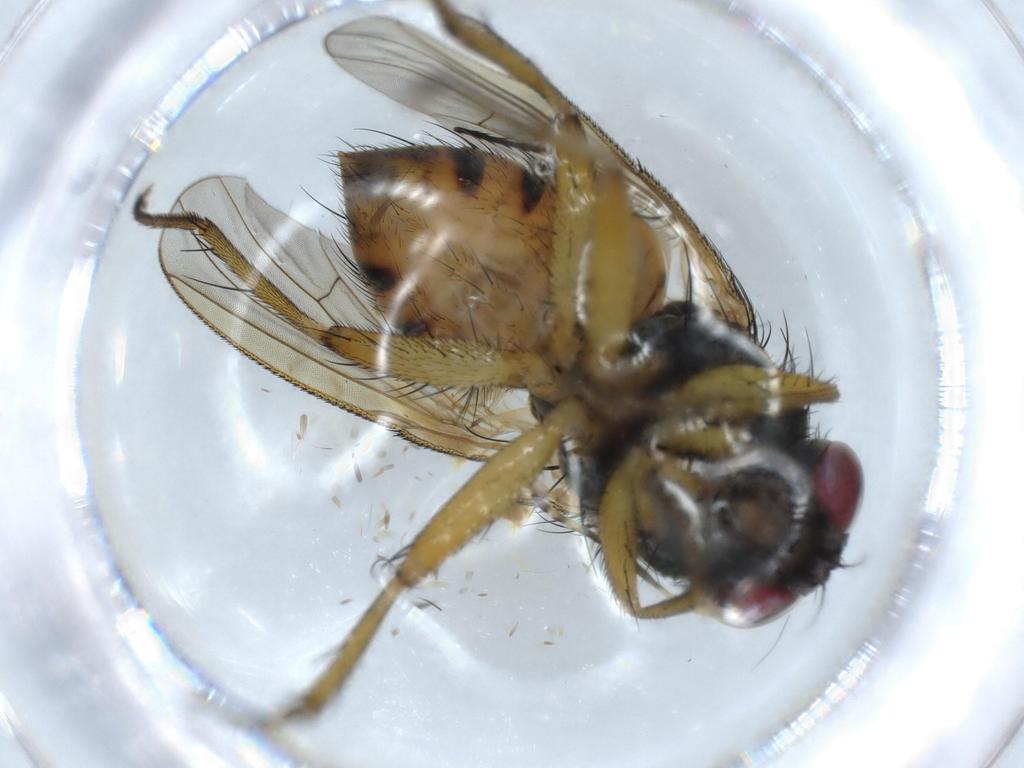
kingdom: Animalia
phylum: Arthropoda
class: Insecta
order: Diptera
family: Muscidae
